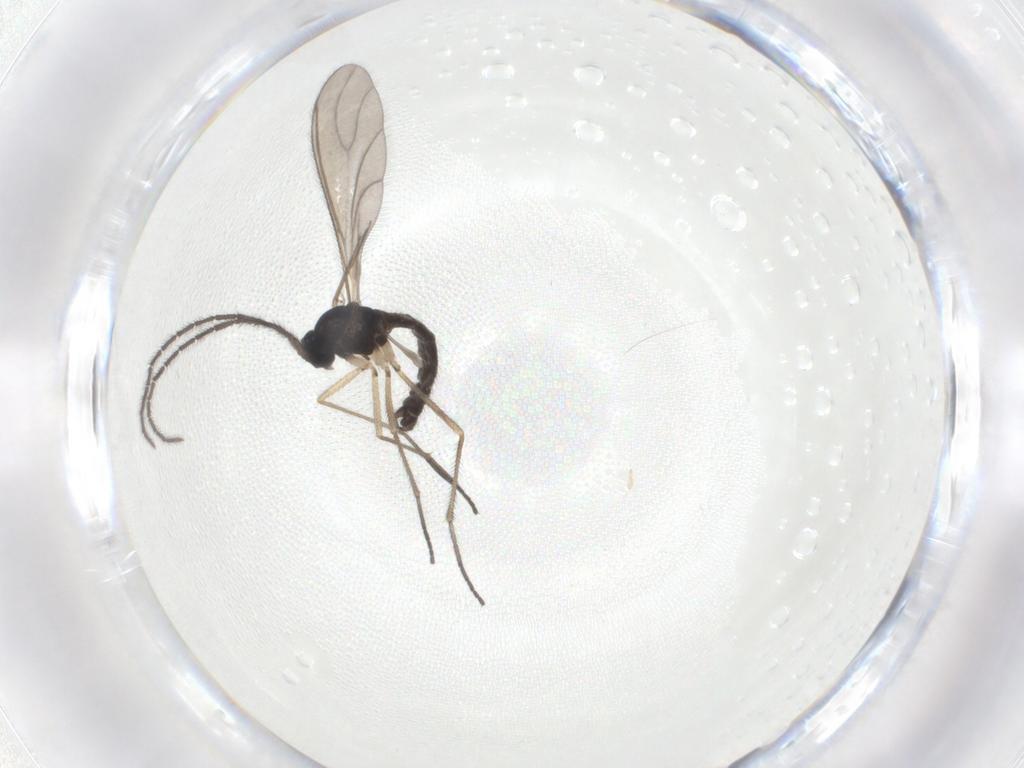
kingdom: Animalia
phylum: Arthropoda
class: Insecta
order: Diptera
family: Sciaridae
